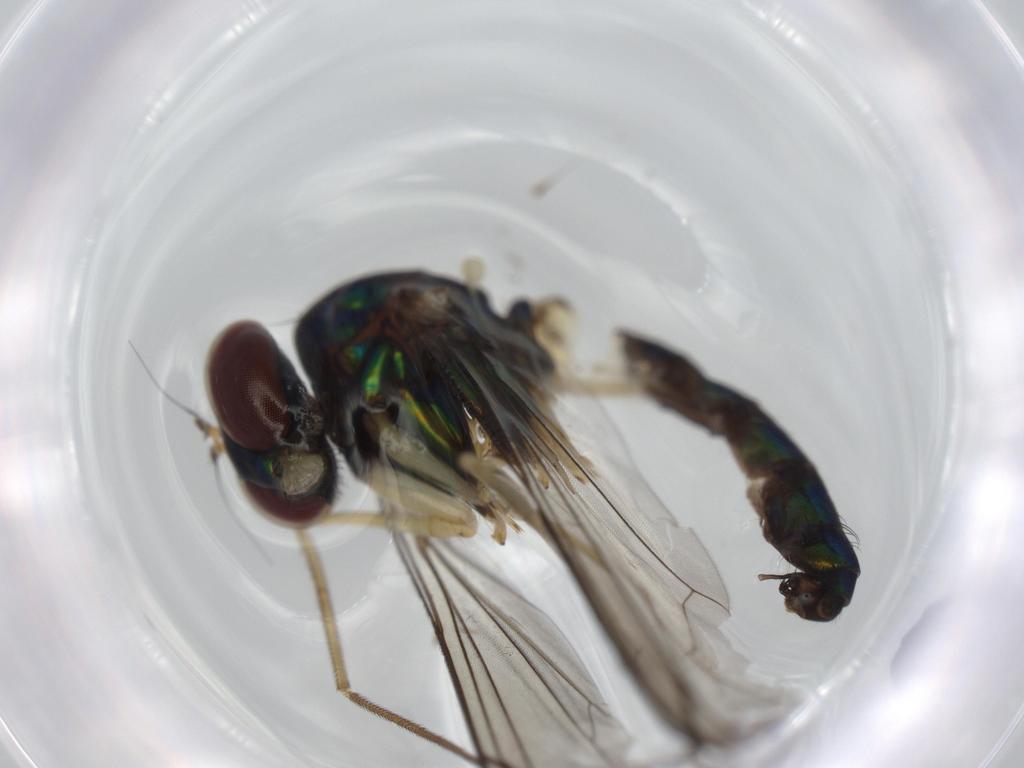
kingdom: Animalia
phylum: Arthropoda
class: Insecta
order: Diptera
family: Dolichopodidae
